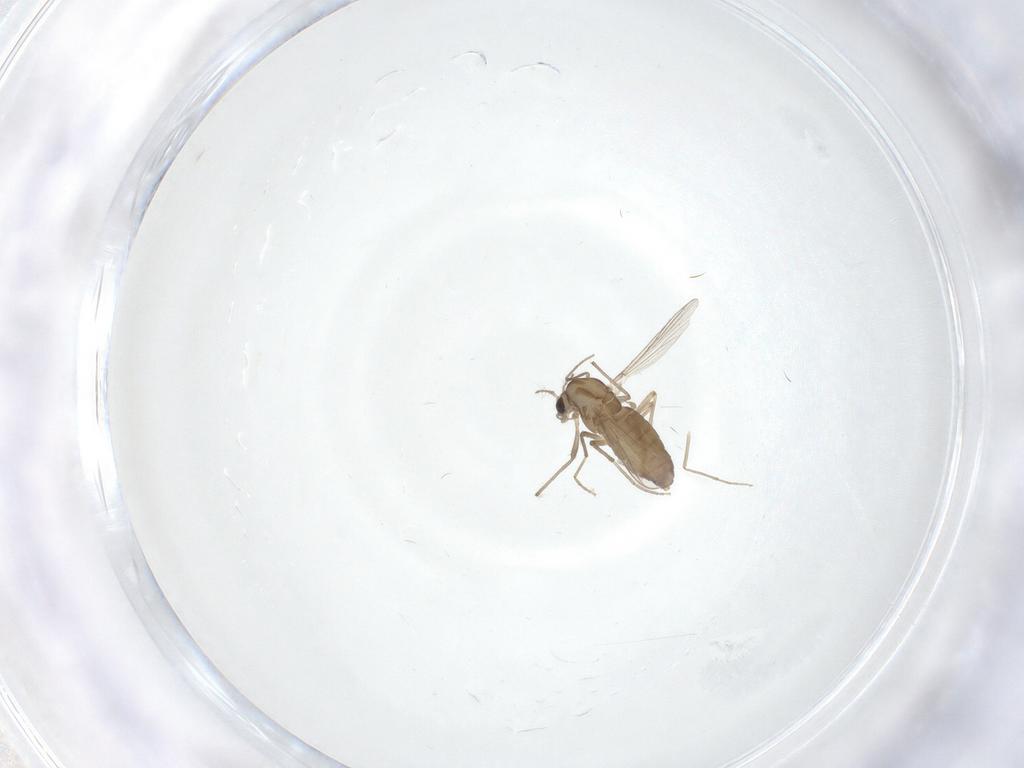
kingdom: Animalia
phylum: Arthropoda
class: Insecta
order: Diptera
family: Chironomidae
